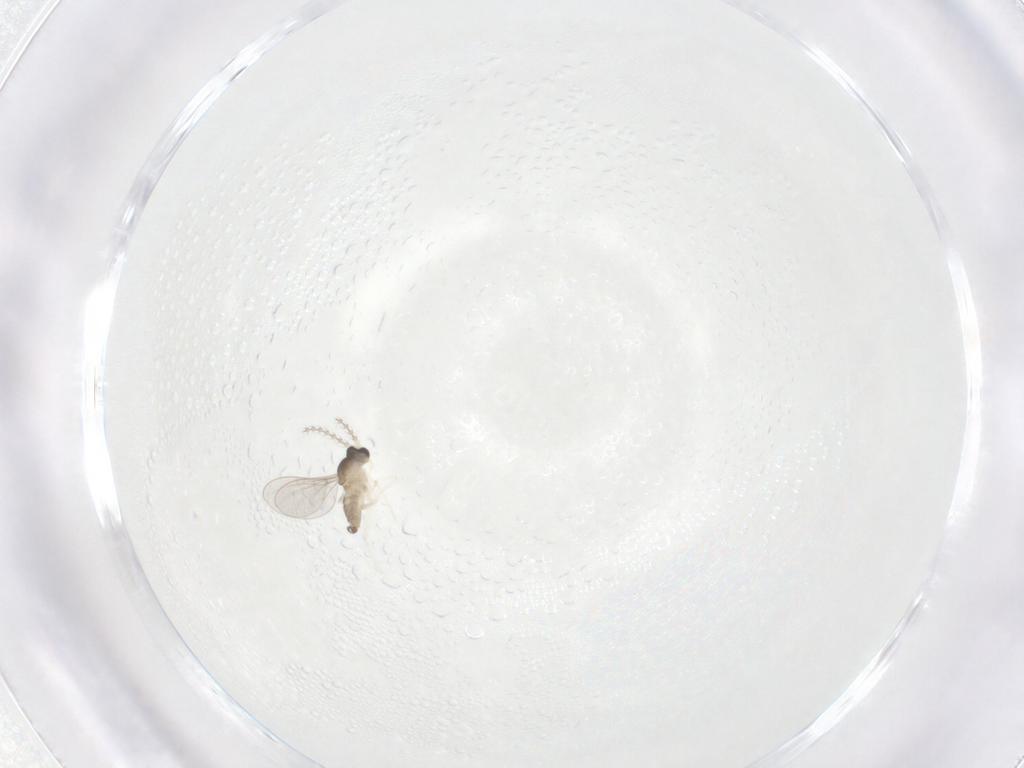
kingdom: Animalia
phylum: Arthropoda
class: Insecta
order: Diptera
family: Cecidomyiidae
